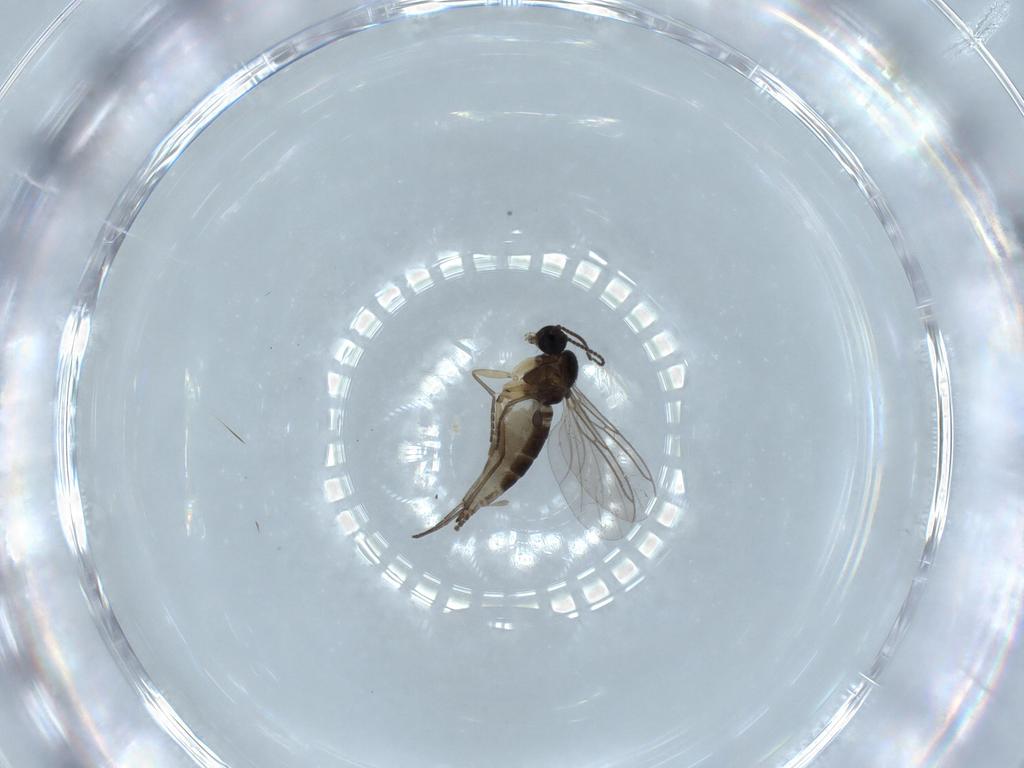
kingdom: Animalia
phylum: Arthropoda
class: Insecta
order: Diptera
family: Sciaridae
